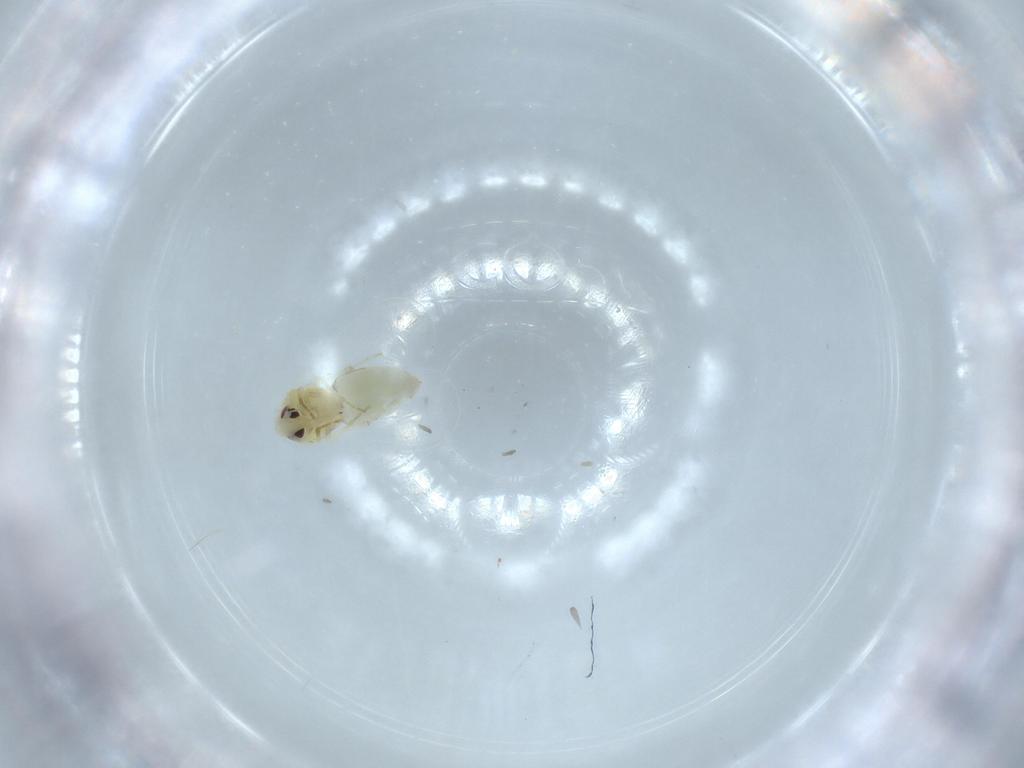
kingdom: Animalia
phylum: Arthropoda
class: Insecta
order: Hemiptera
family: Aleyrodidae
